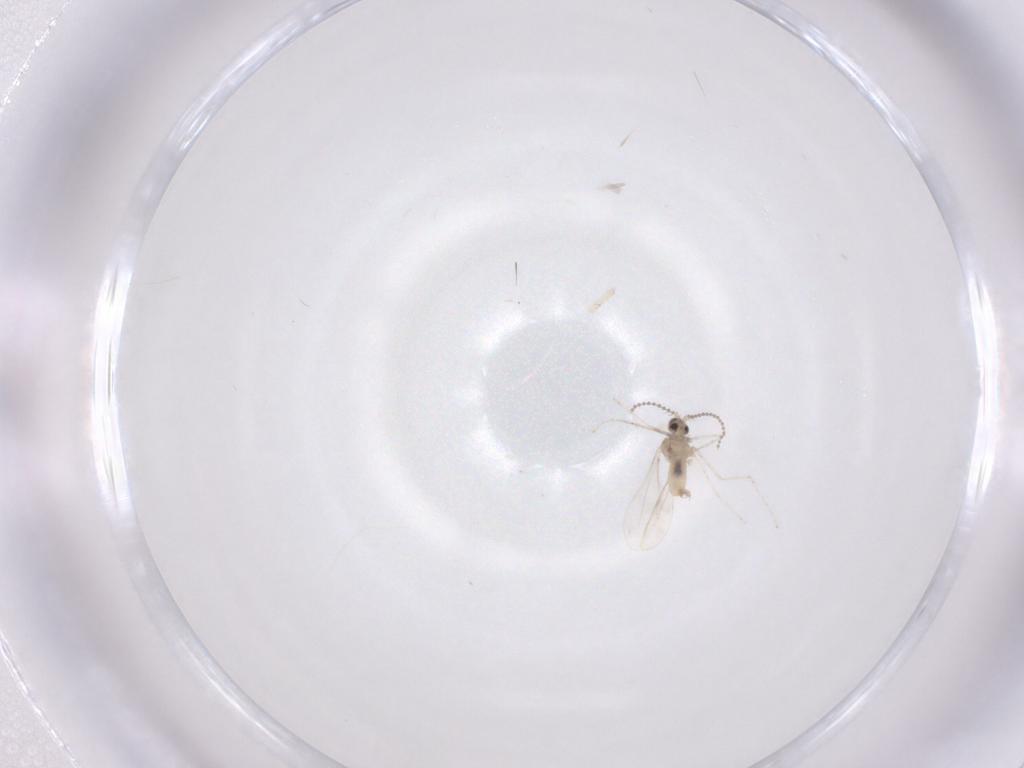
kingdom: Animalia
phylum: Arthropoda
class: Insecta
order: Diptera
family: Cecidomyiidae
